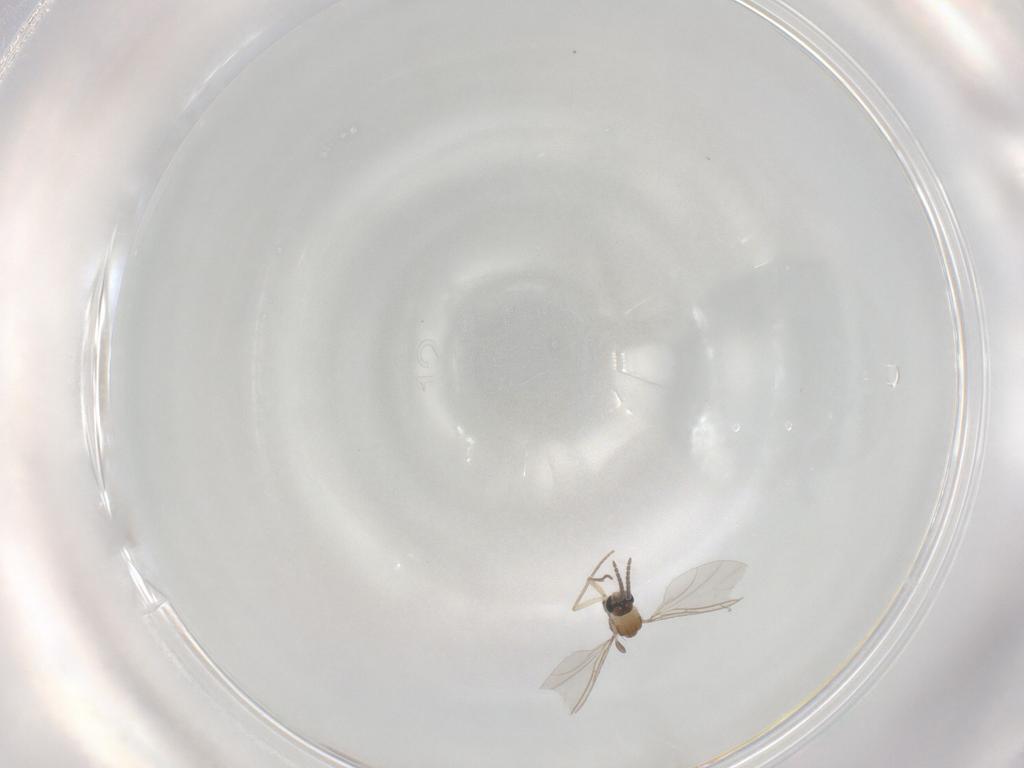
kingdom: Animalia
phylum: Arthropoda
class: Insecta
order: Diptera
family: Sciaridae
